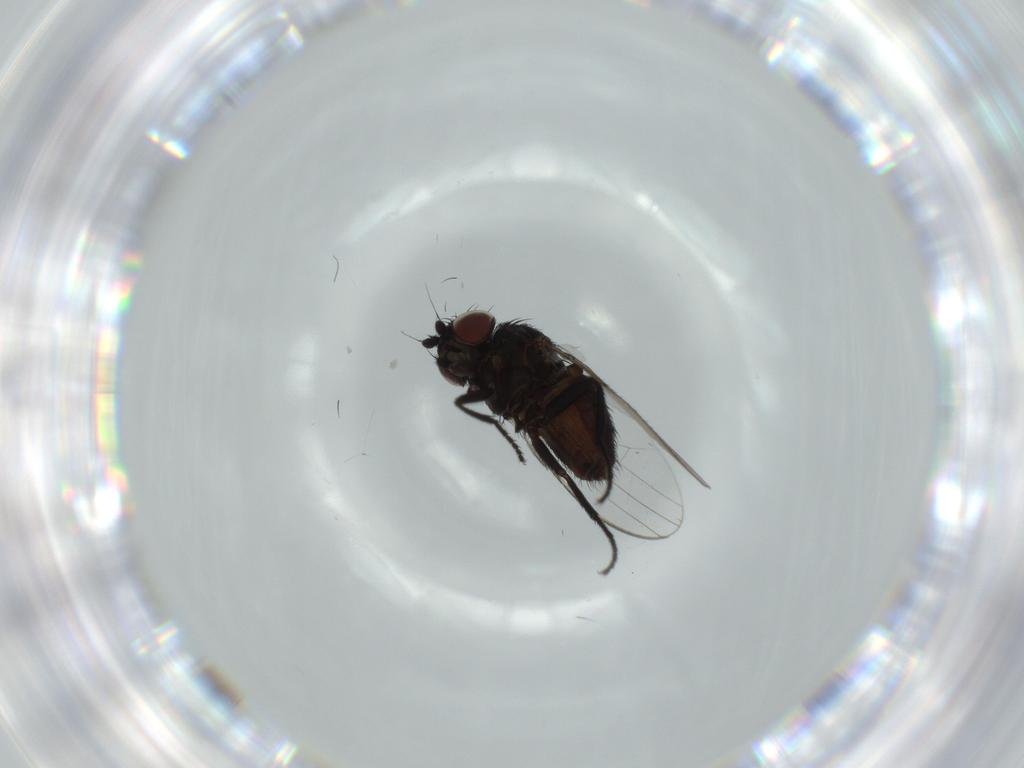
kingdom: Animalia
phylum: Arthropoda
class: Insecta
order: Diptera
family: Milichiidae
